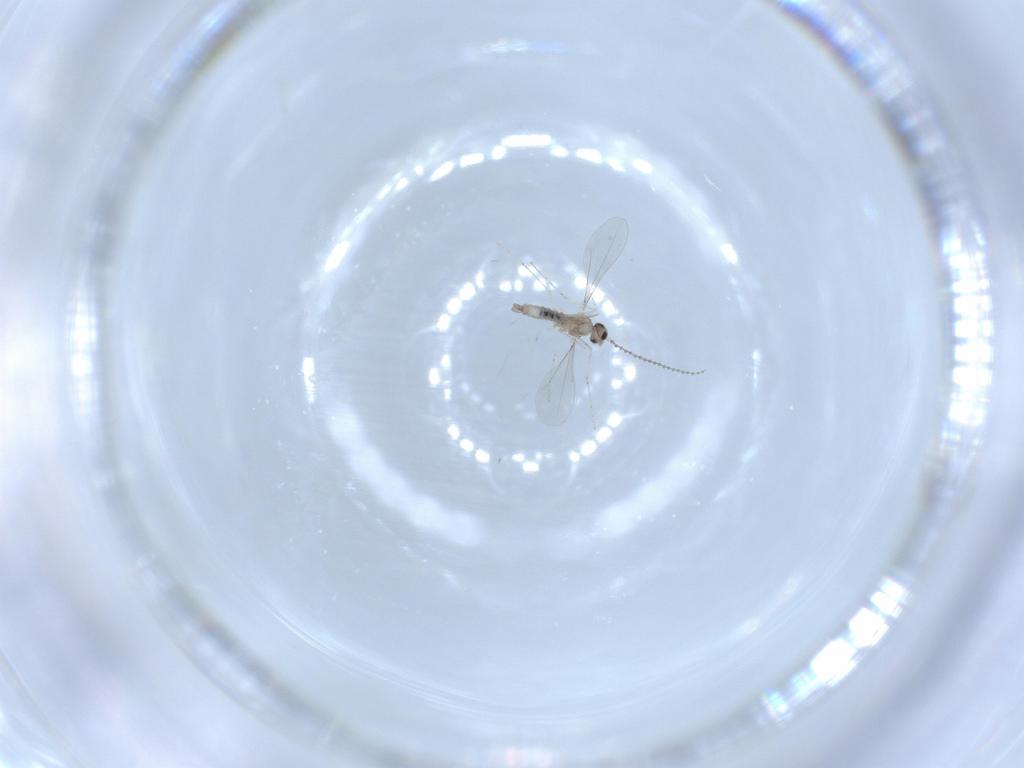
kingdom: Animalia
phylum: Arthropoda
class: Insecta
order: Diptera
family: Cecidomyiidae
